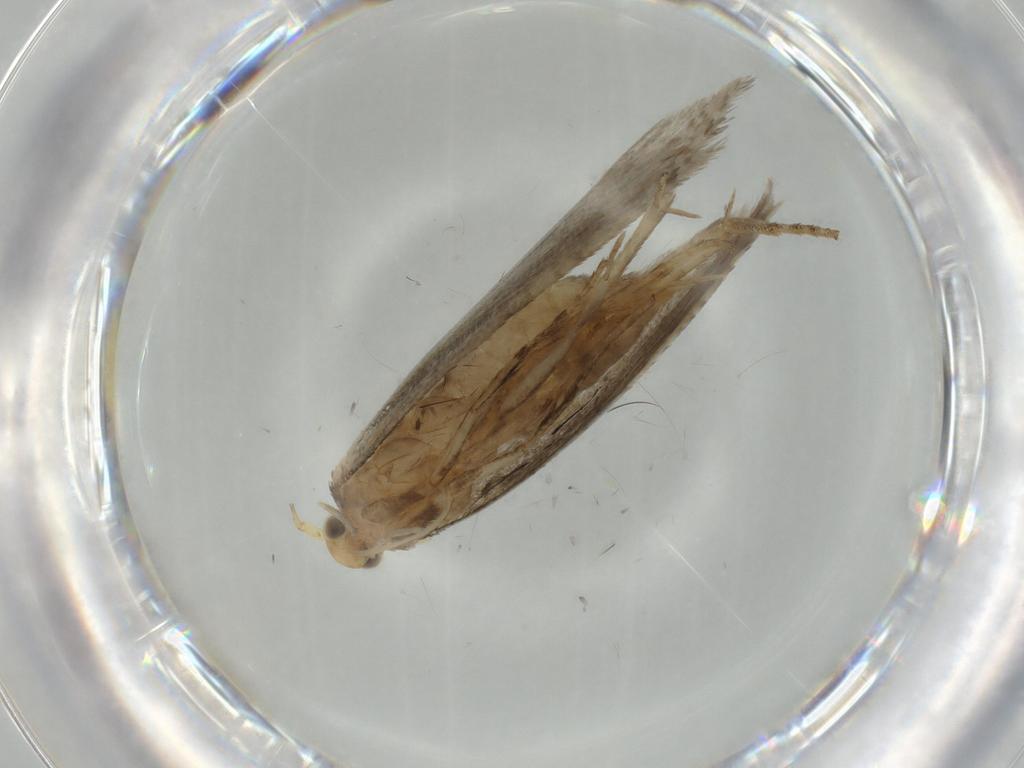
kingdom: Animalia
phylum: Arthropoda
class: Insecta
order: Lepidoptera
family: Argyresthiidae
